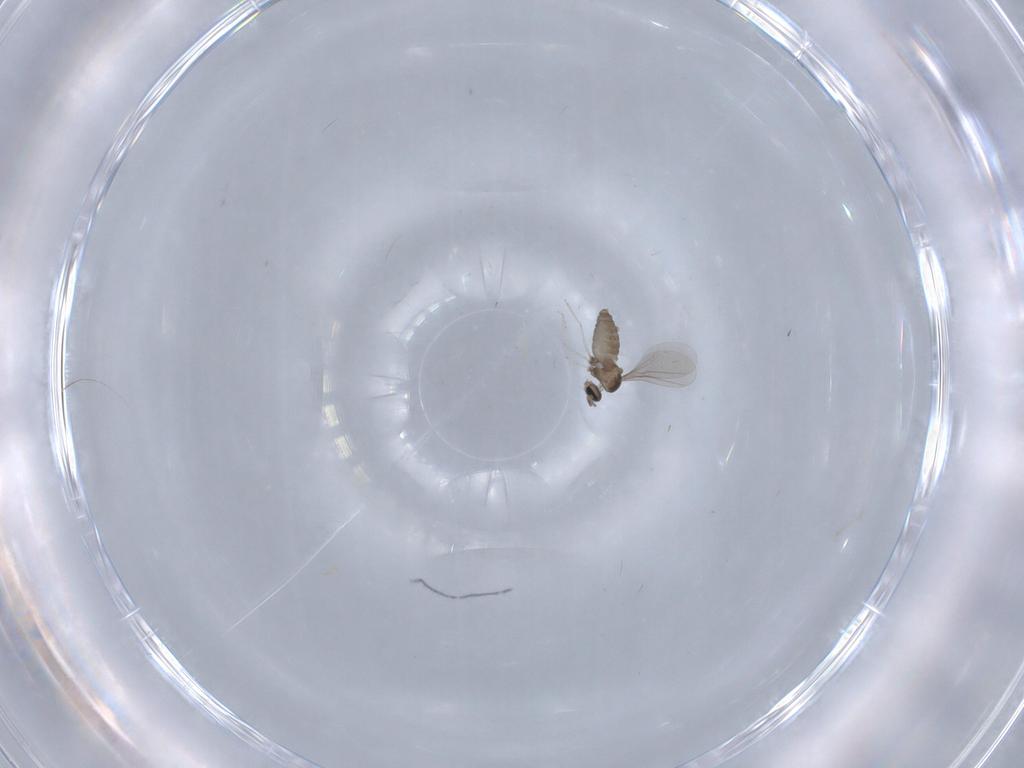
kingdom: Animalia
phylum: Arthropoda
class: Insecta
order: Diptera
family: Cecidomyiidae
